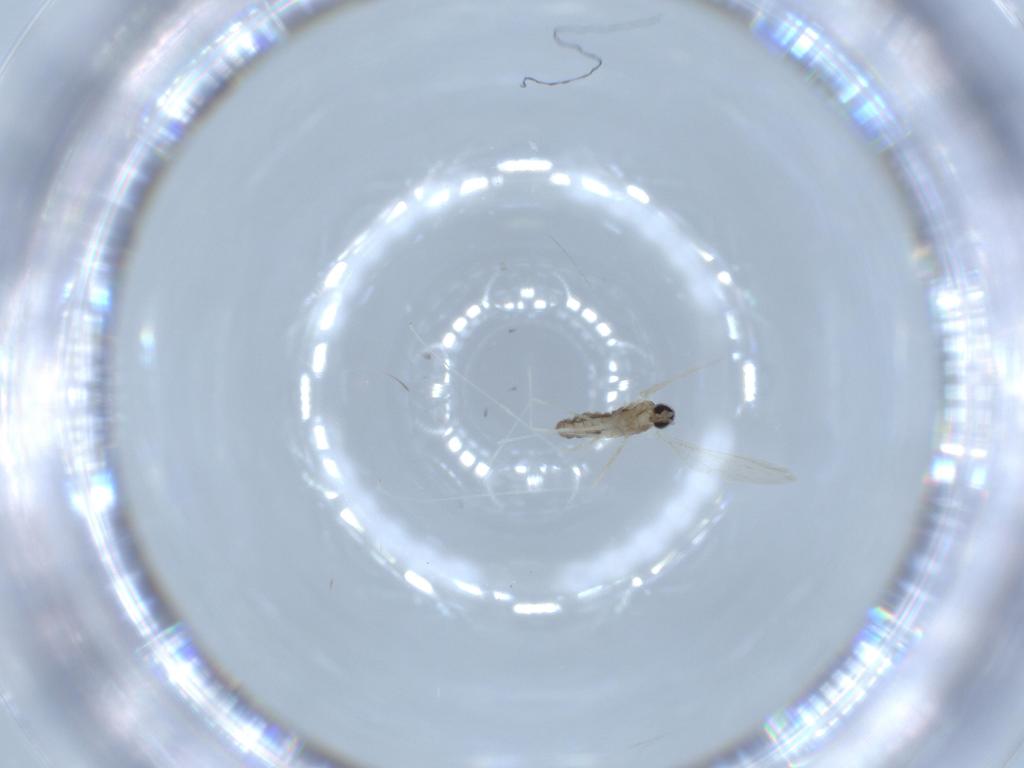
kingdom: Animalia
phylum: Arthropoda
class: Insecta
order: Diptera
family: Cecidomyiidae
